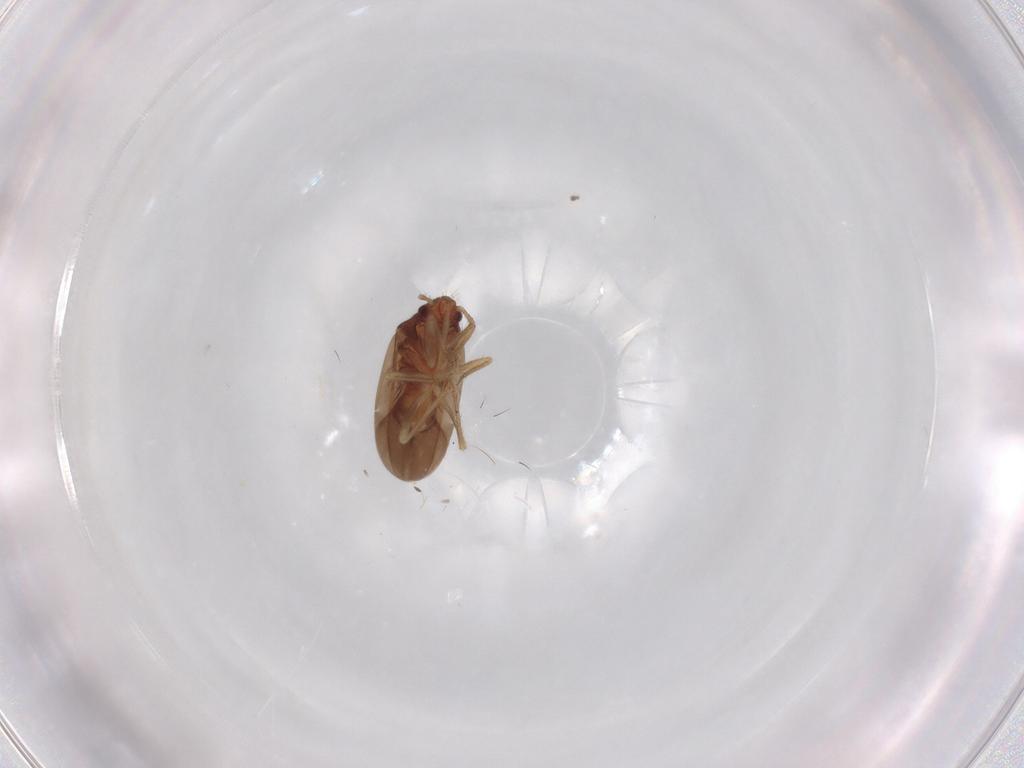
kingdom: Animalia
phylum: Arthropoda
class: Insecta
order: Hemiptera
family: Ceratocombidae
